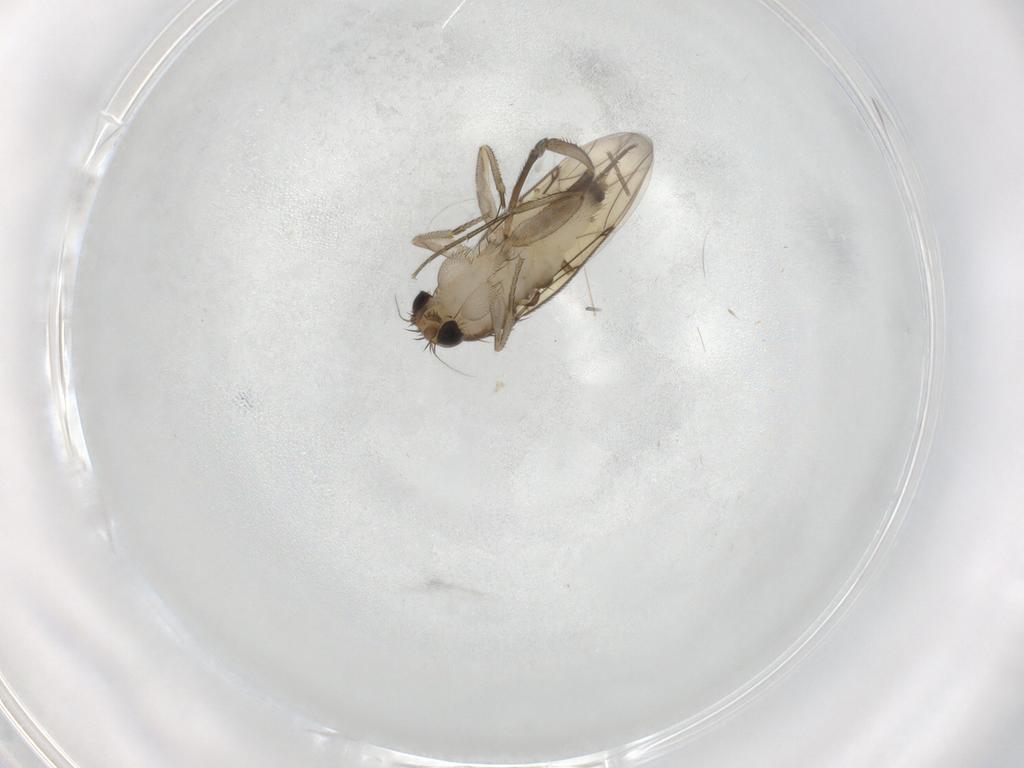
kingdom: Animalia
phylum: Arthropoda
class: Insecta
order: Diptera
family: Phoridae
